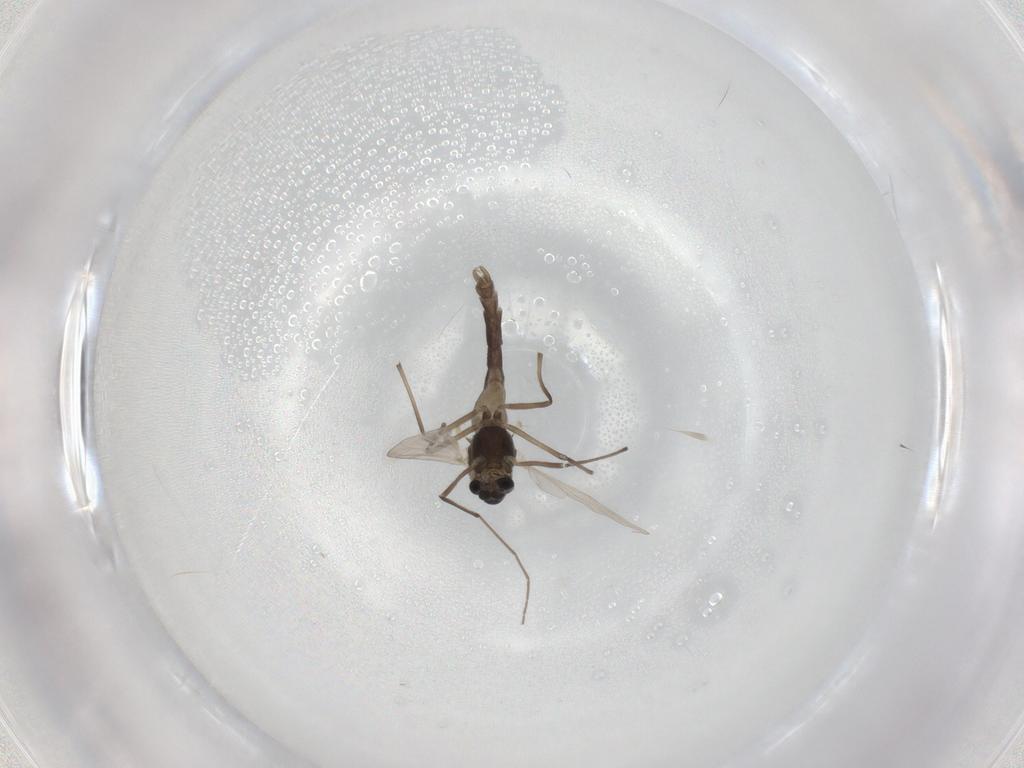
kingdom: Animalia
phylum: Arthropoda
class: Insecta
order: Diptera
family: Chironomidae
